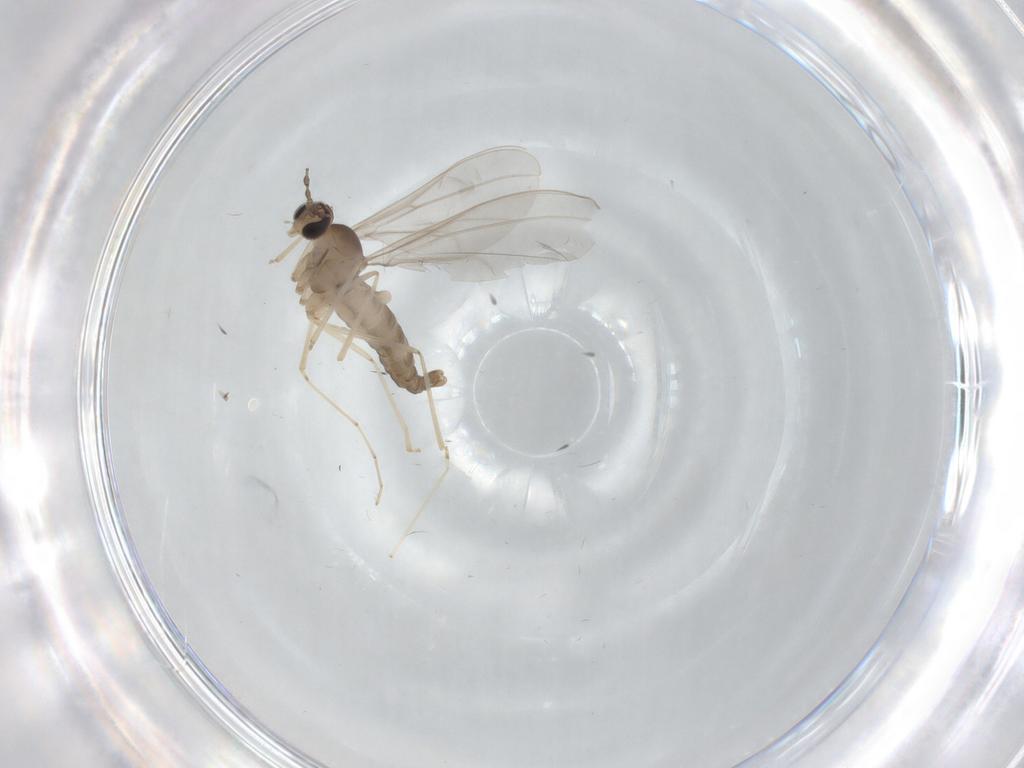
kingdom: Animalia
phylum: Arthropoda
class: Insecta
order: Diptera
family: Cecidomyiidae
